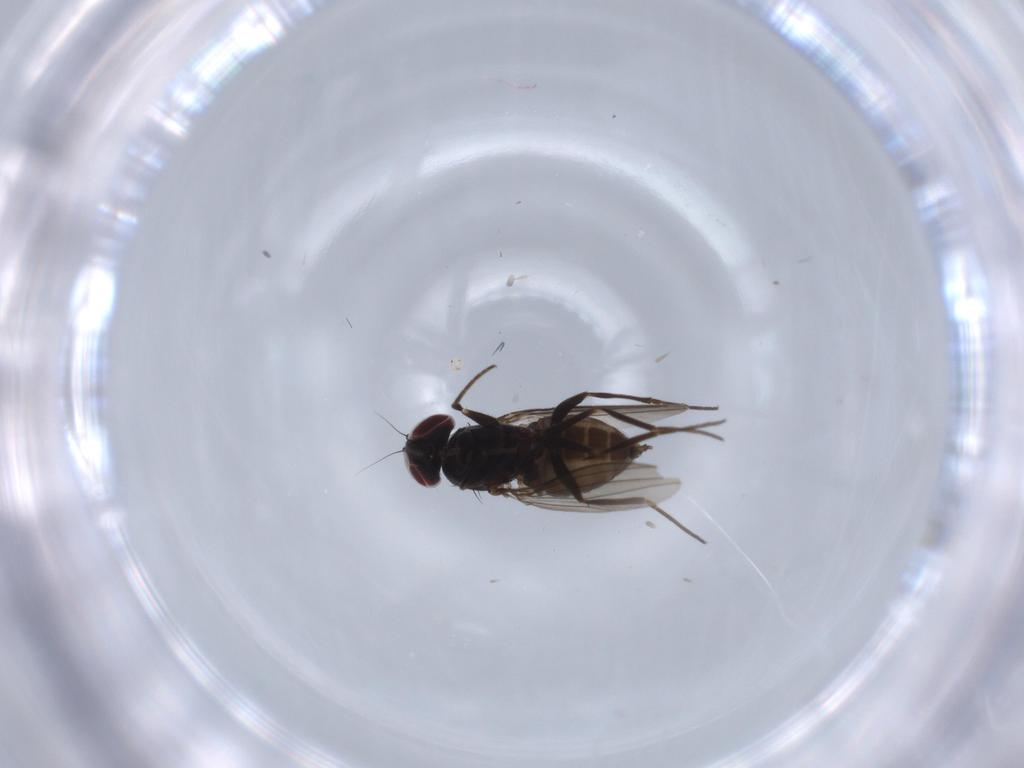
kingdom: Animalia
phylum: Arthropoda
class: Insecta
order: Diptera
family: Sciaridae
